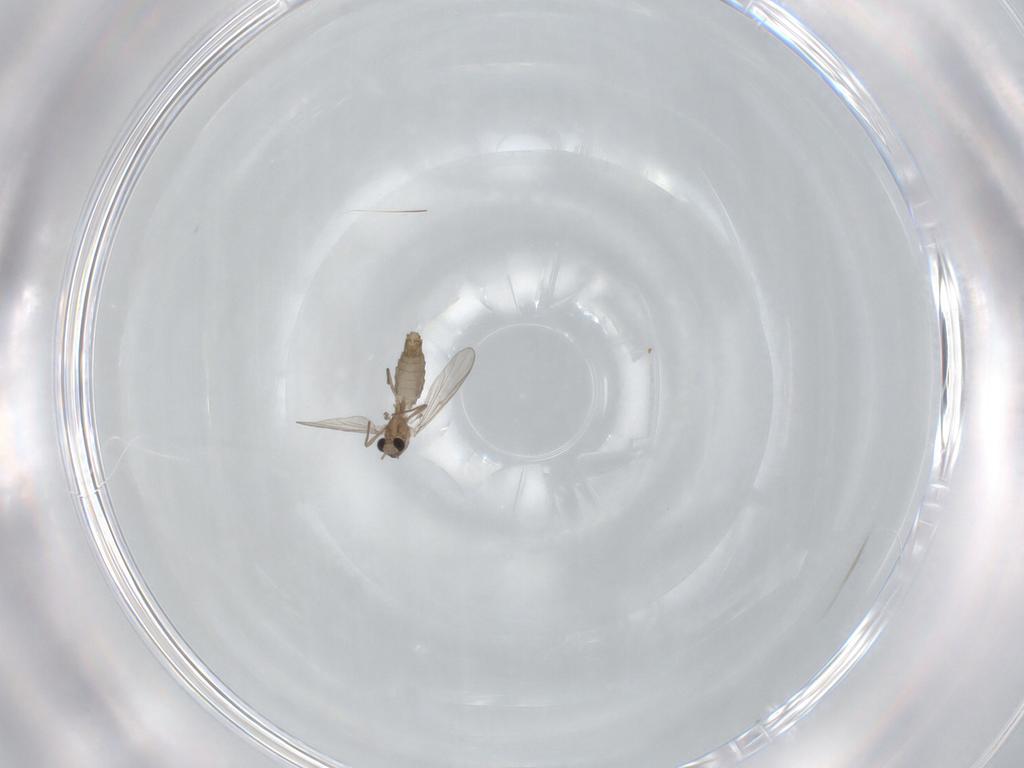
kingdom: Animalia
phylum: Arthropoda
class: Insecta
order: Diptera
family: Chironomidae
